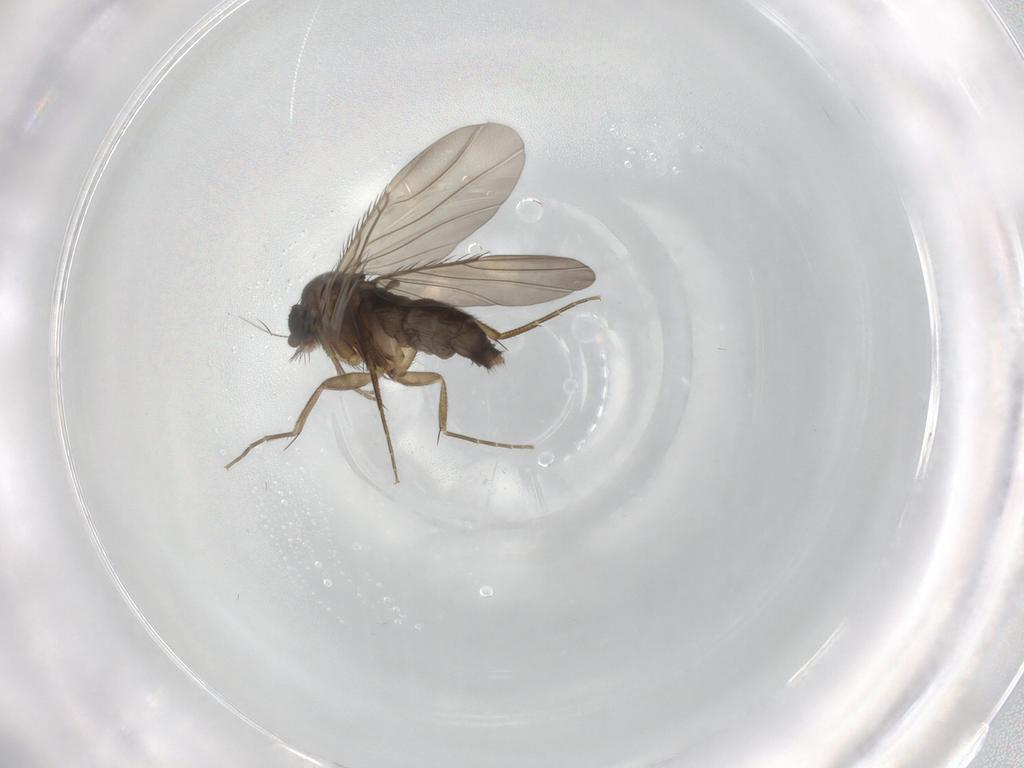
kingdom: Animalia
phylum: Arthropoda
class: Insecta
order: Diptera
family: Phoridae
